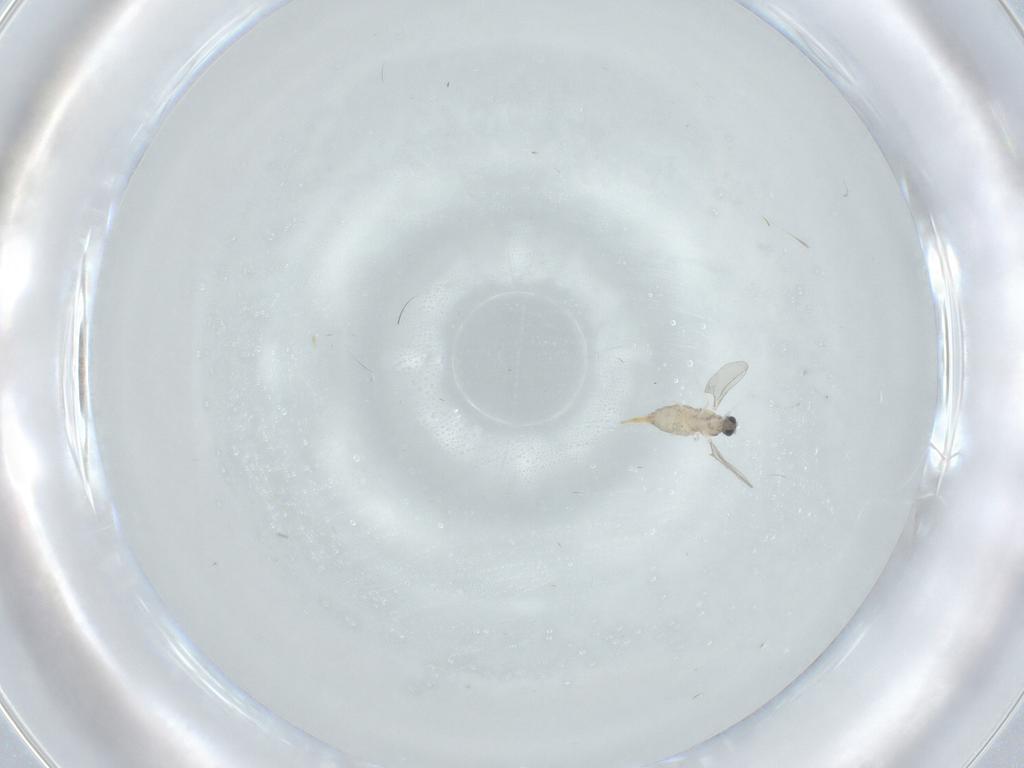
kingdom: Animalia
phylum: Arthropoda
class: Insecta
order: Diptera
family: Cecidomyiidae
